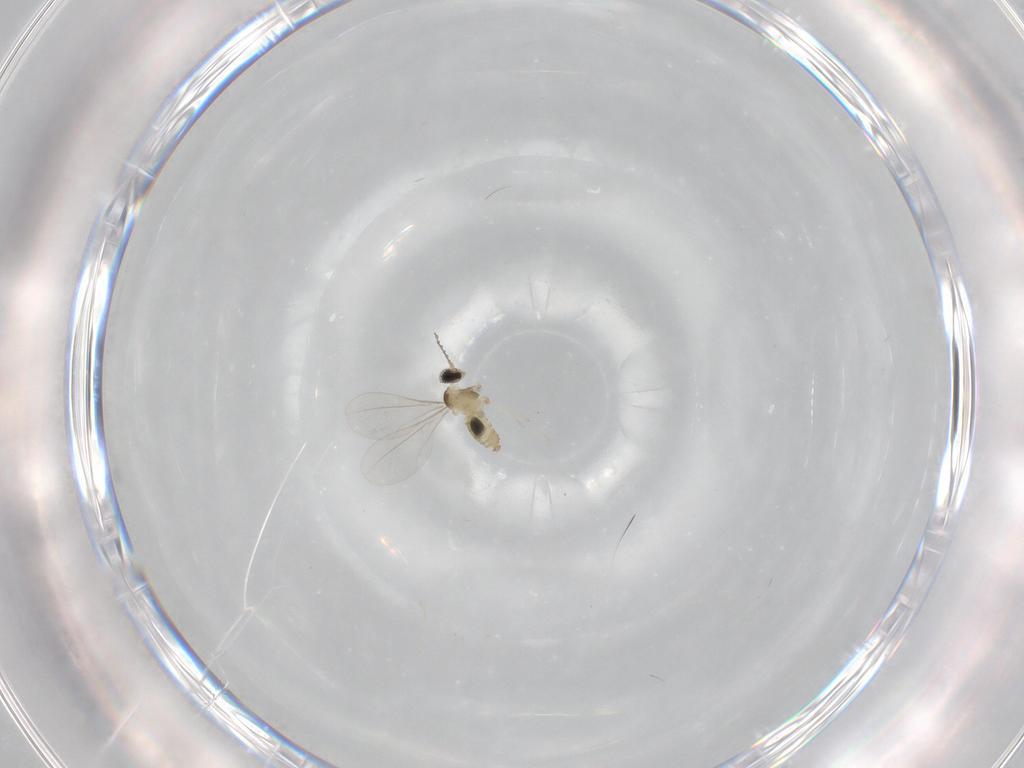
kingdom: Animalia
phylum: Arthropoda
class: Insecta
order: Diptera
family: Cecidomyiidae
